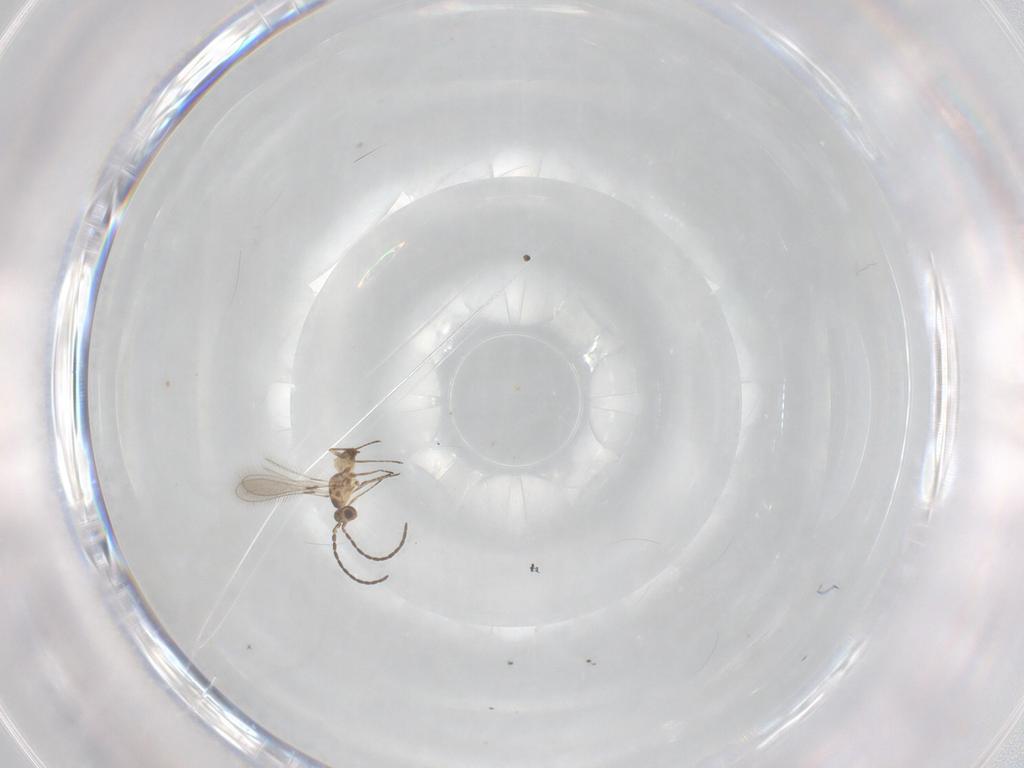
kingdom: Animalia
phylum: Arthropoda
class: Insecta
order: Hymenoptera
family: Mymaridae
